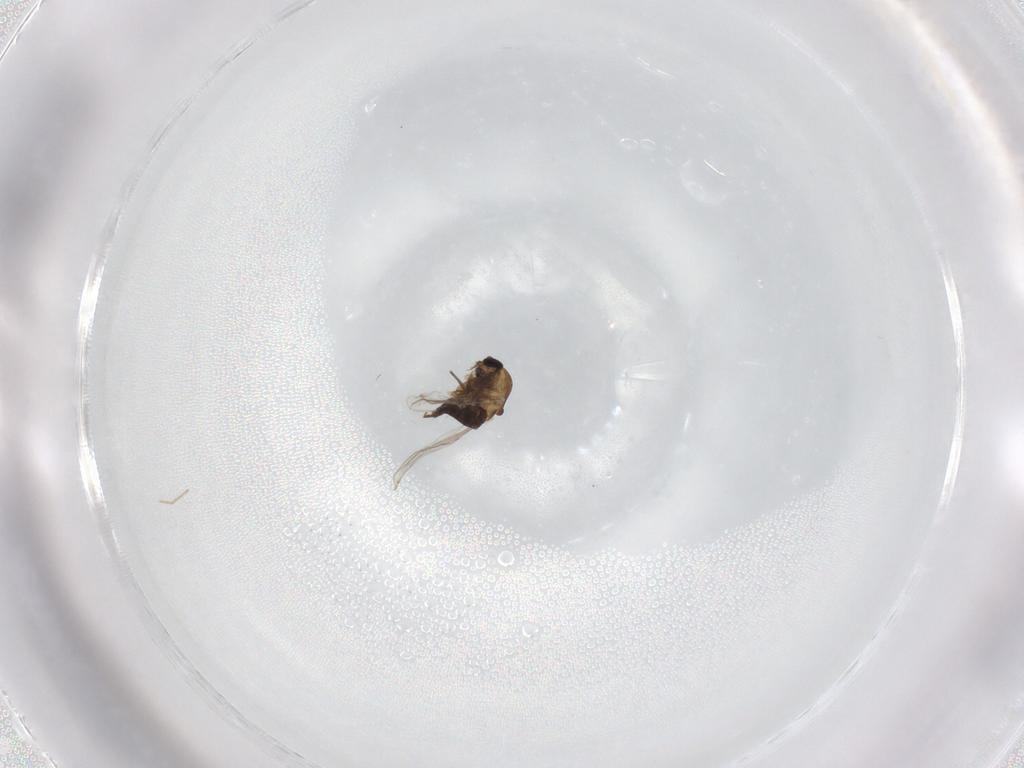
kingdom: Animalia
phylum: Arthropoda
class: Insecta
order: Diptera
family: Chironomidae
